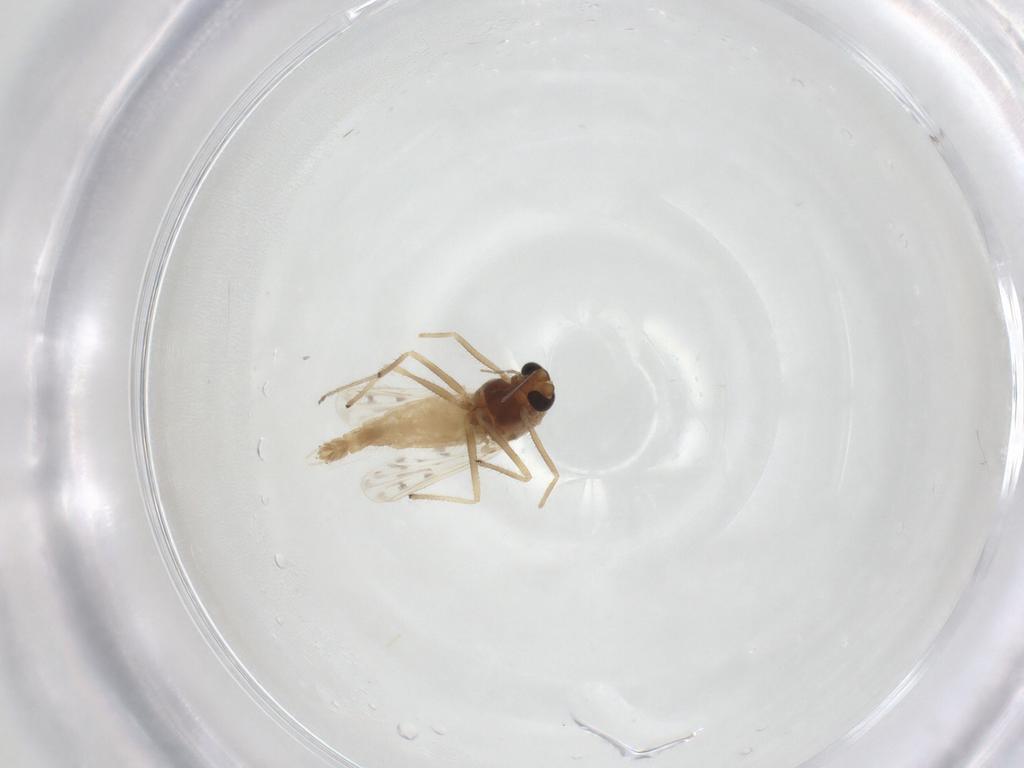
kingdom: Animalia
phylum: Arthropoda
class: Insecta
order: Diptera
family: Chironomidae
